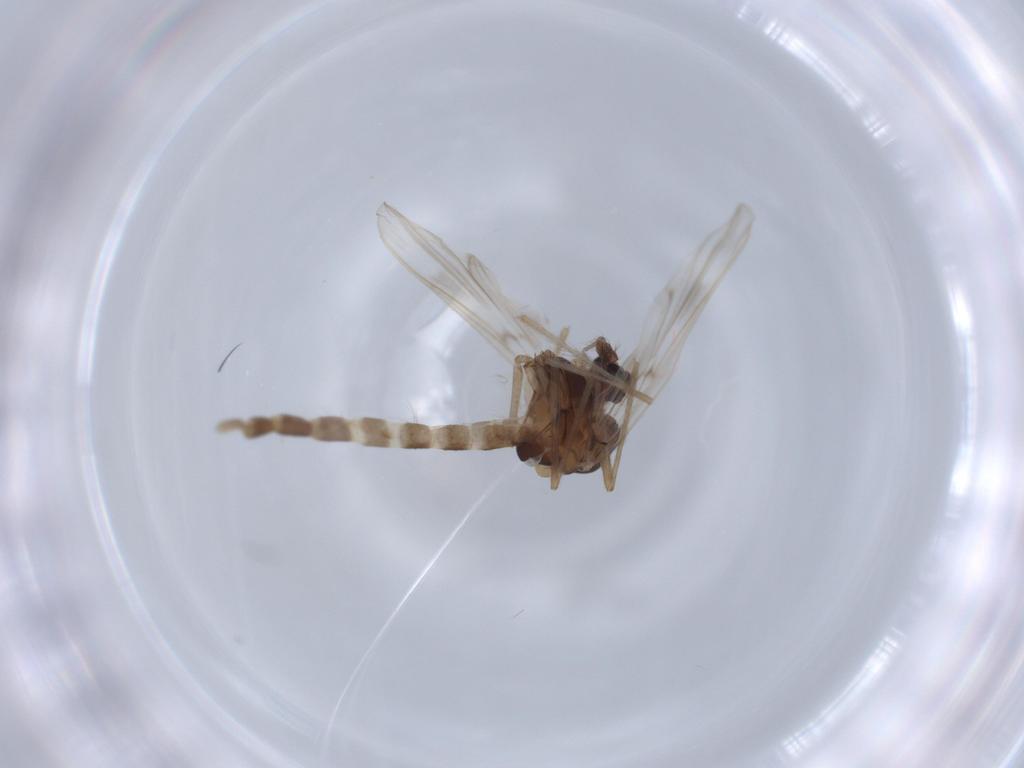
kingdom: Animalia
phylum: Arthropoda
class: Insecta
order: Diptera
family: Chironomidae
